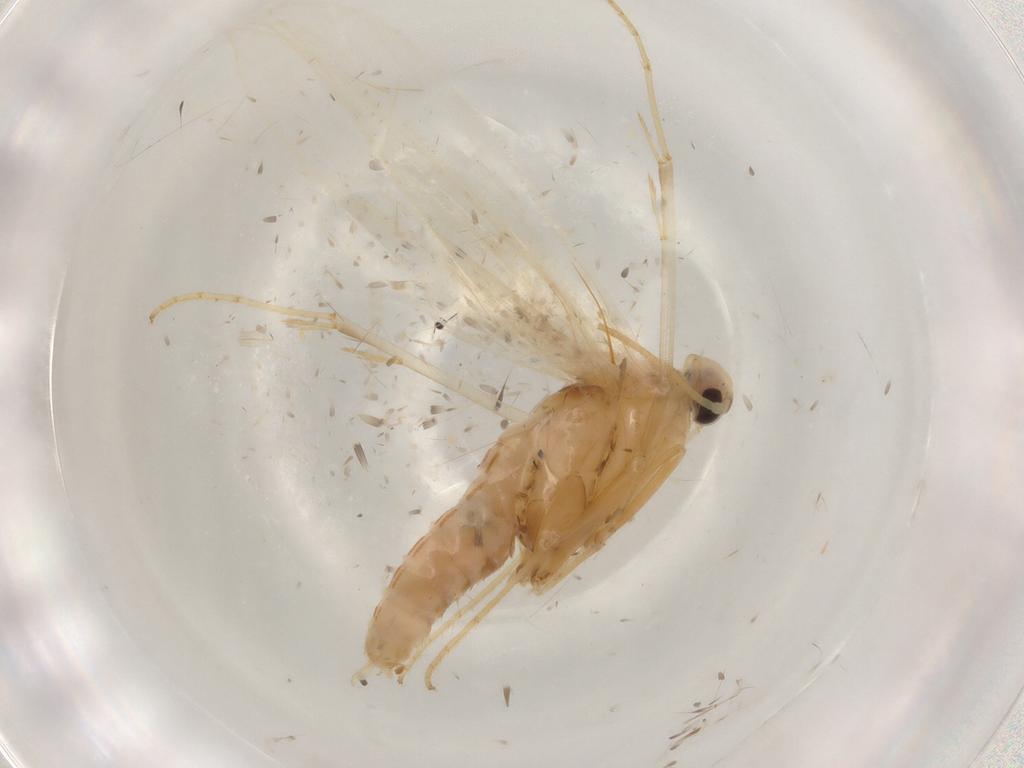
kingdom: Animalia
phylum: Arthropoda
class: Insecta
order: Lepidoptera
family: Xyloryctidae
